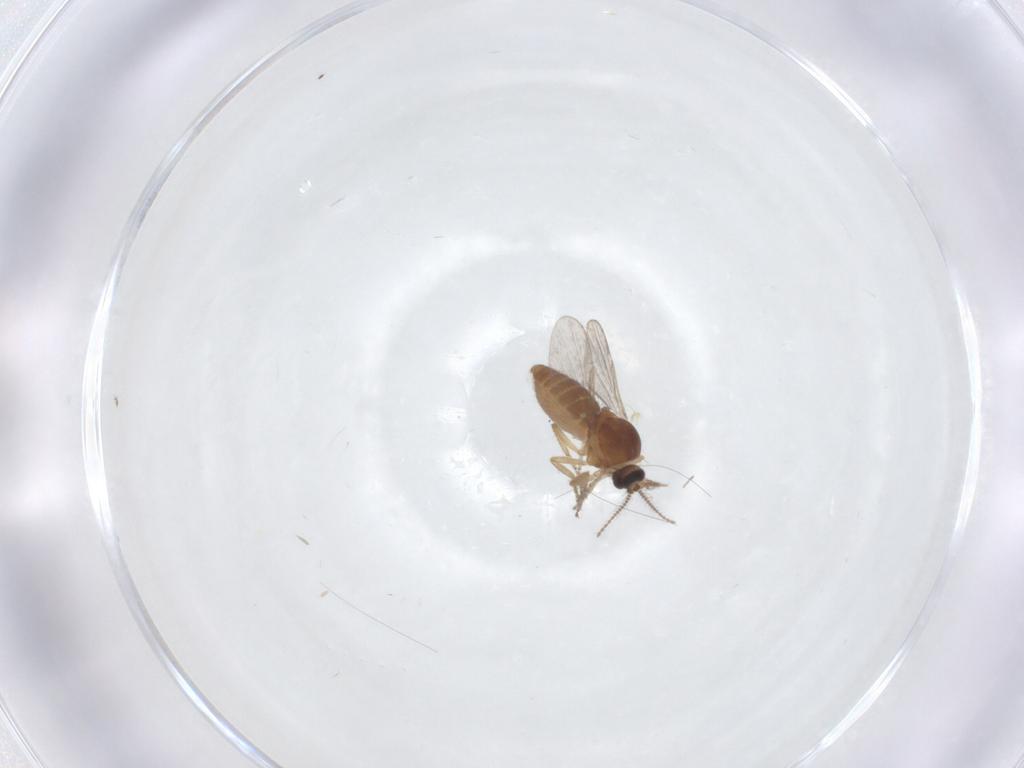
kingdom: Animalia
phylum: Arthropoda
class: Insecta
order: Diptera
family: Ceratopogonidae
